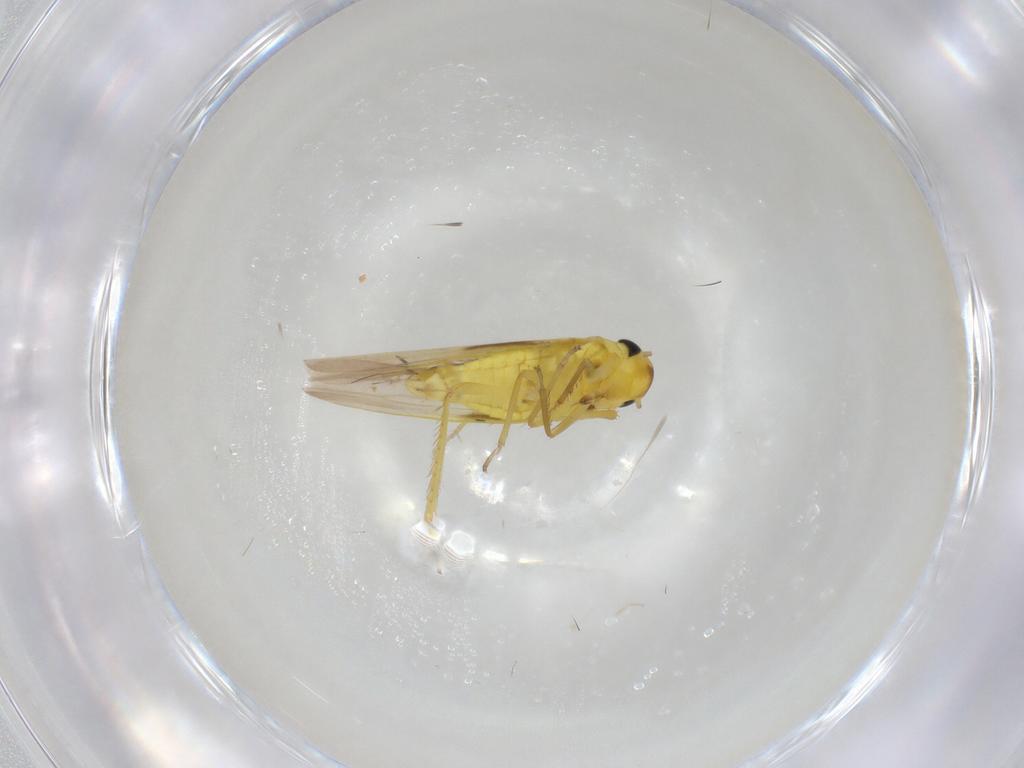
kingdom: Animalia
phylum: Arthropoda
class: Insecta
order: Hemiptera
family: Cicadellidae
